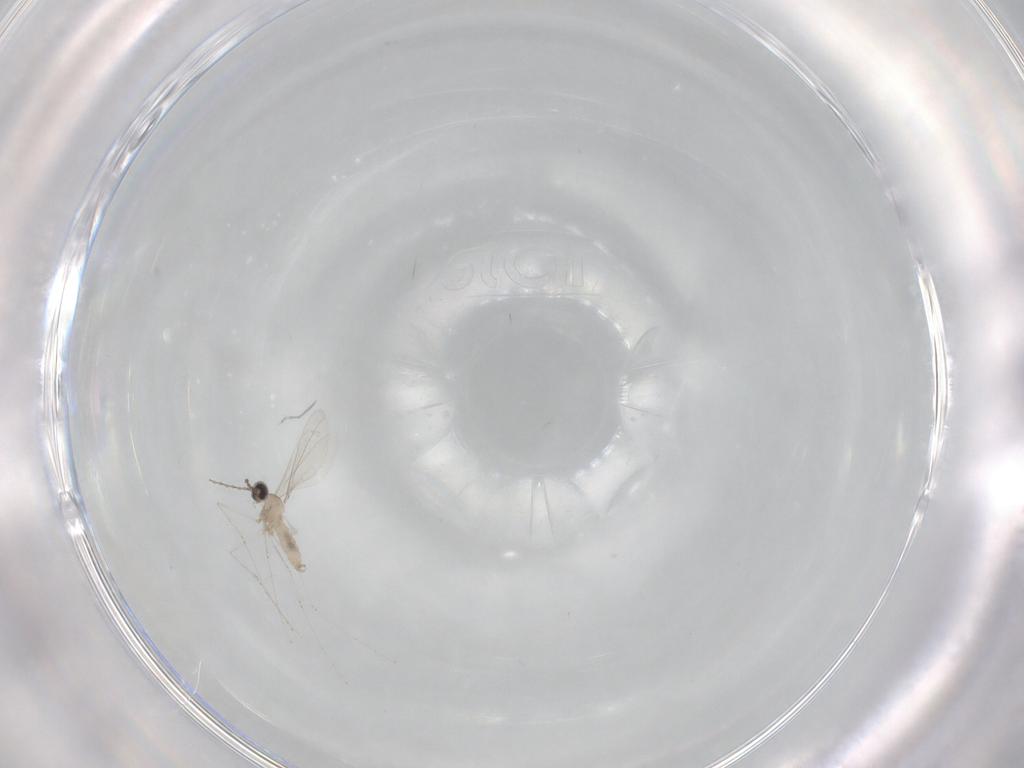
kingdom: Animalia
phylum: Arthropoda
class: Insecta
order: Diptera
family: Cecidomyiidae
